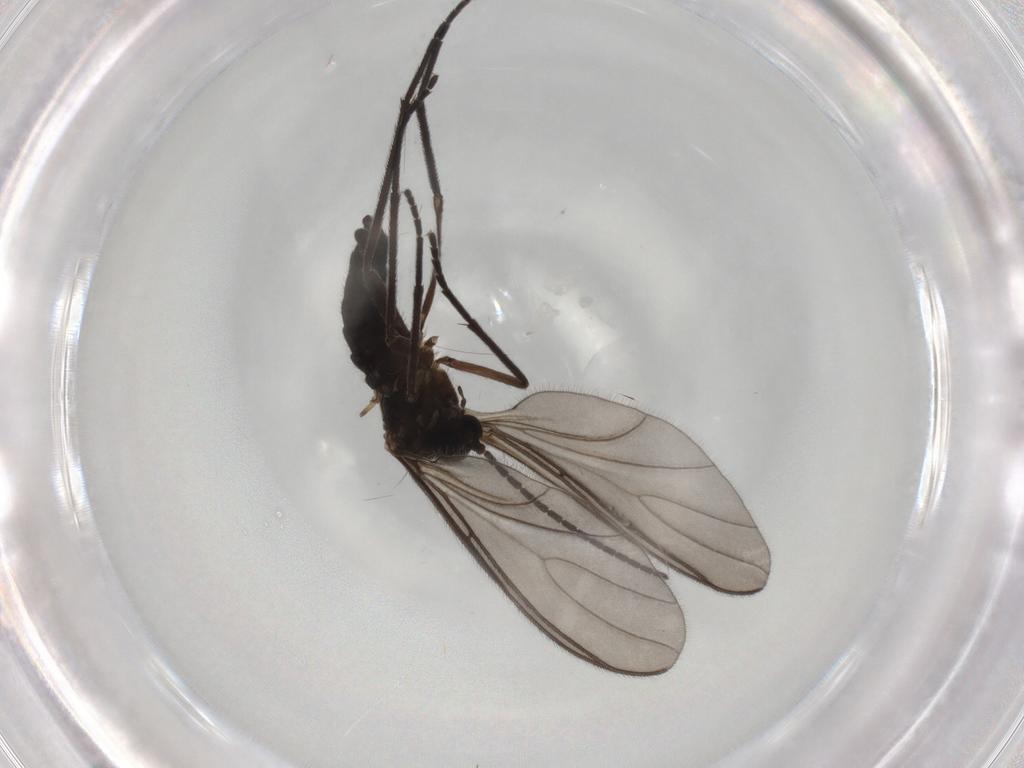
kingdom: Animalia
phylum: Arthropoda
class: Insecta
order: Diptera
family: Sciaridae
